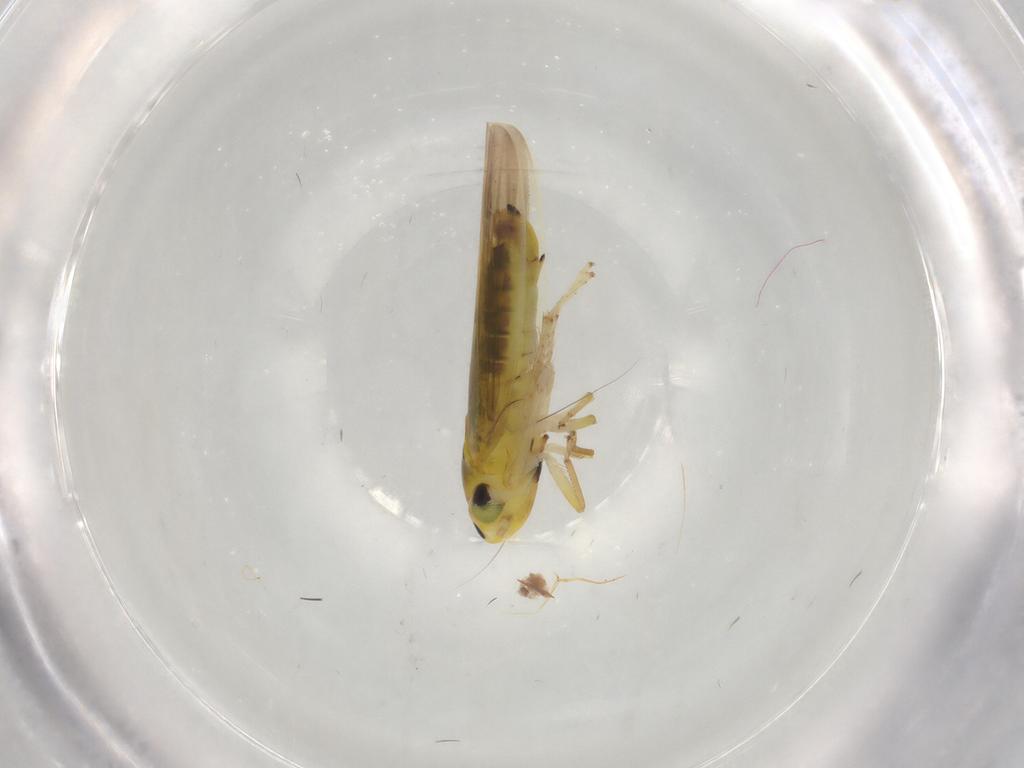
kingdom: Animalia
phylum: Arthropoda
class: Insecta
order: Hemiptera
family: Cicadellidae
